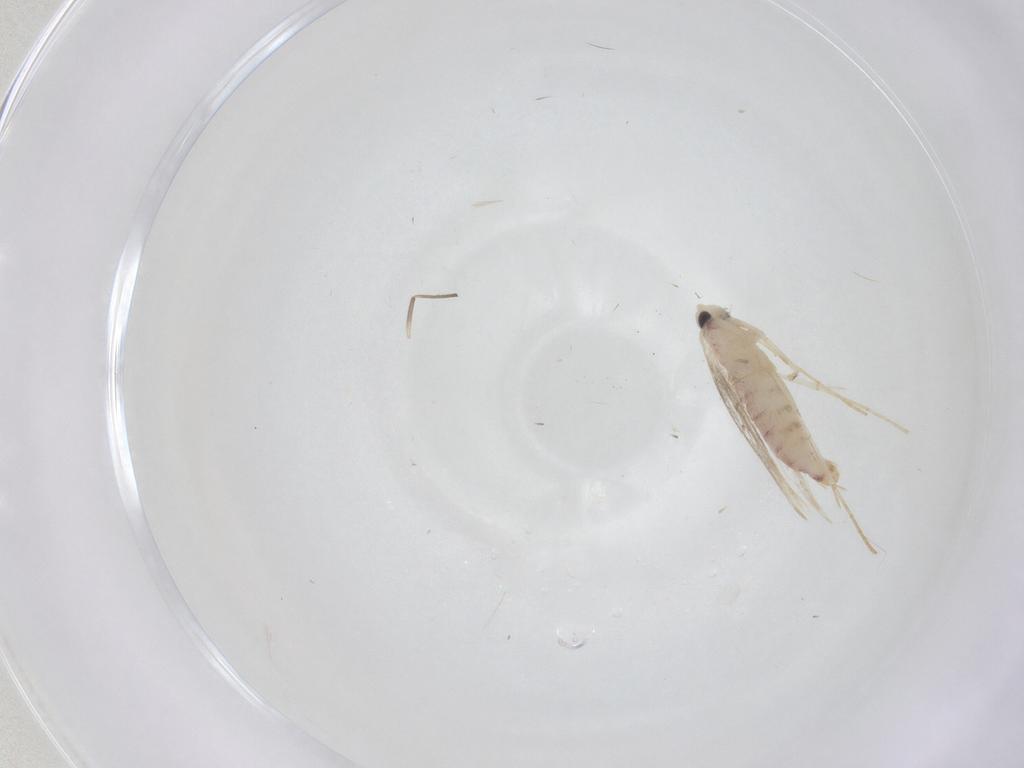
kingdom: Animalia
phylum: Arthropoda
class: Insecta
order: Lepidoptera
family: Tineidae
